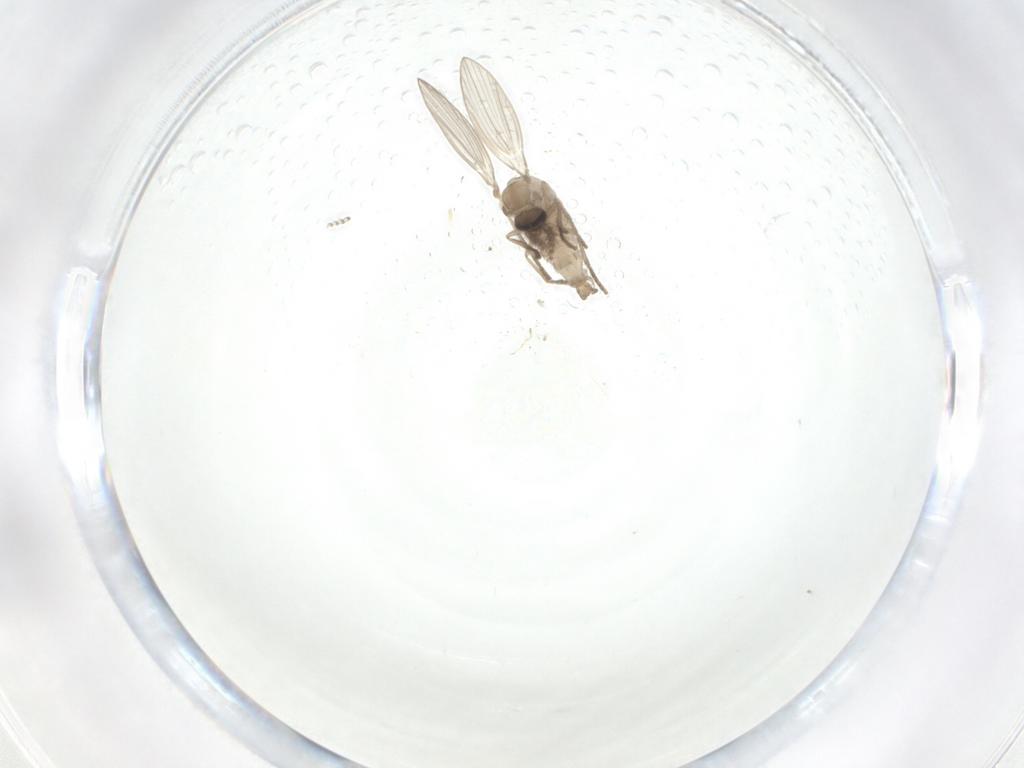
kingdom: Animalia
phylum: Arthropoda
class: Insecta
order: Diptera
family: Psychodidae
